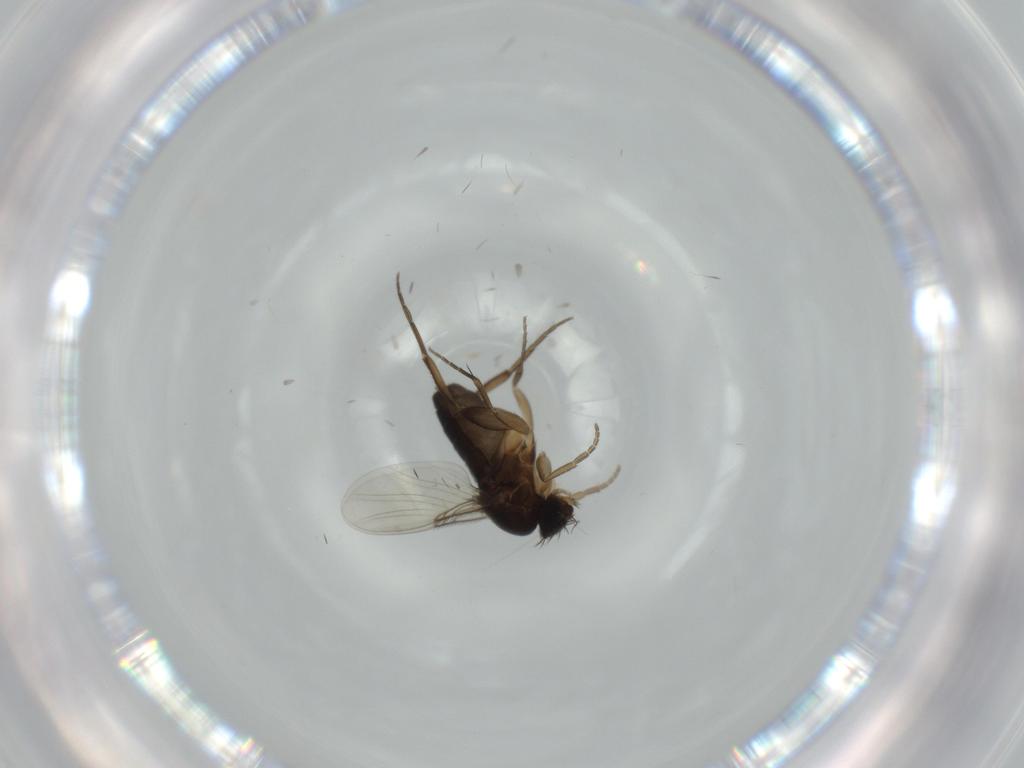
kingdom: Animalia
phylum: Arthropoda
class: Insecta
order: Diptera
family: Phoridae
